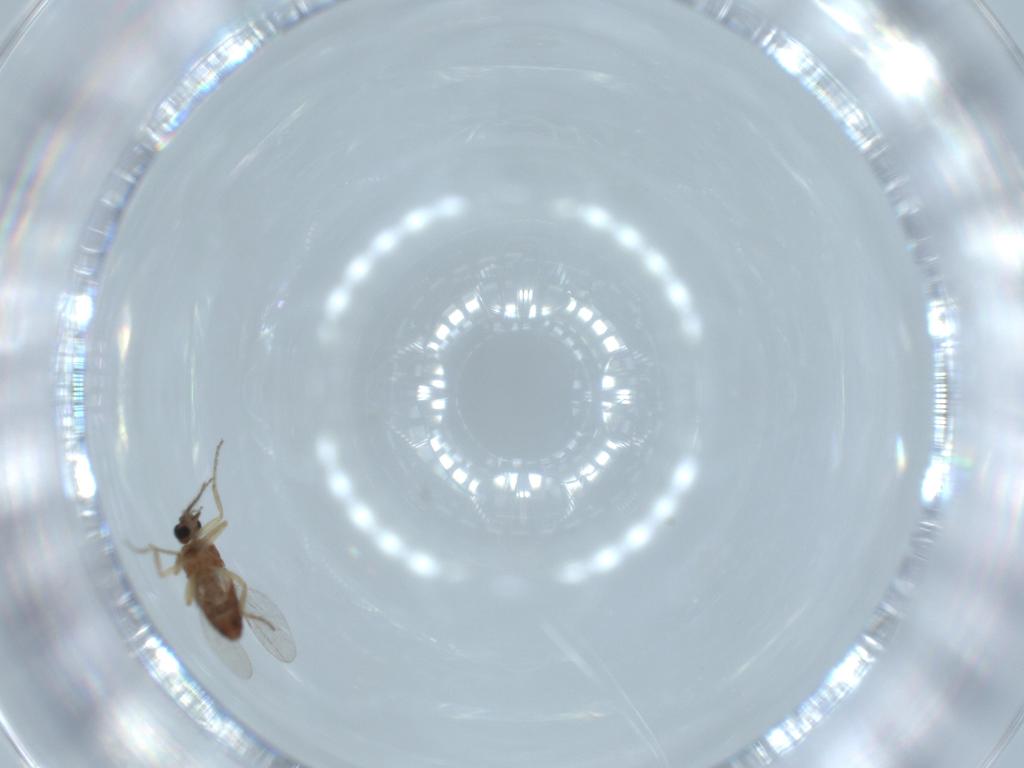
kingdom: Animalia
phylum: Arthropoda
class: Insecta
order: Diptera
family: Ceratopogonidae
